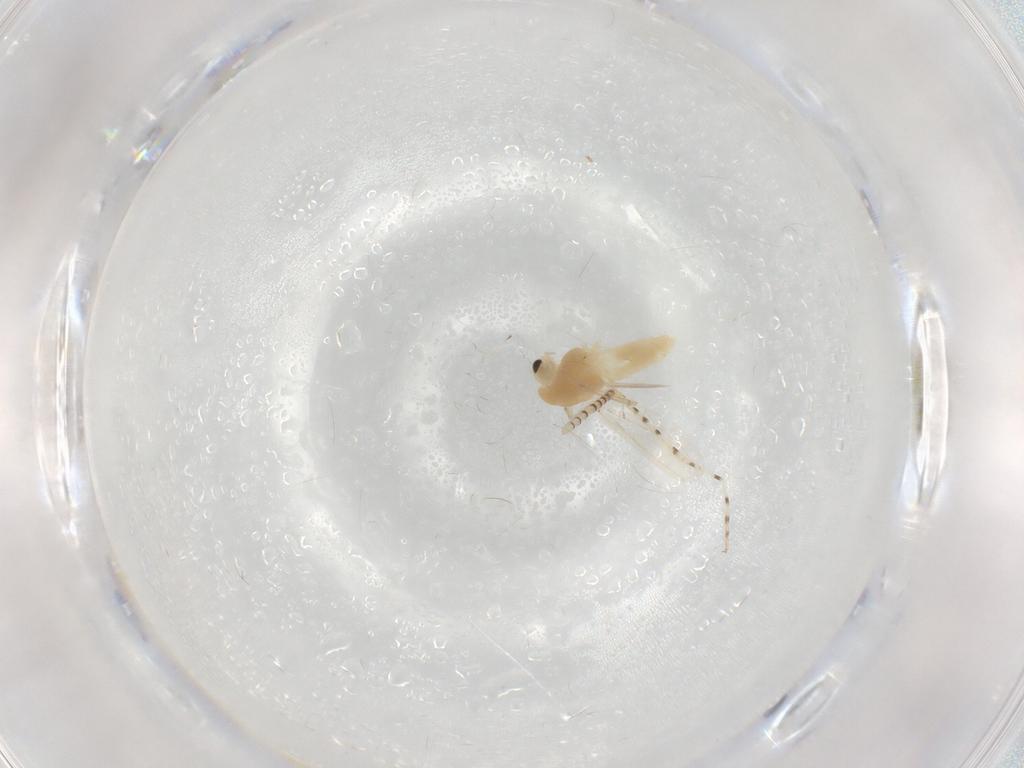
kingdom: Animalia
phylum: Arthropoda
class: Insecta
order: Diptera
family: Chironomidae
